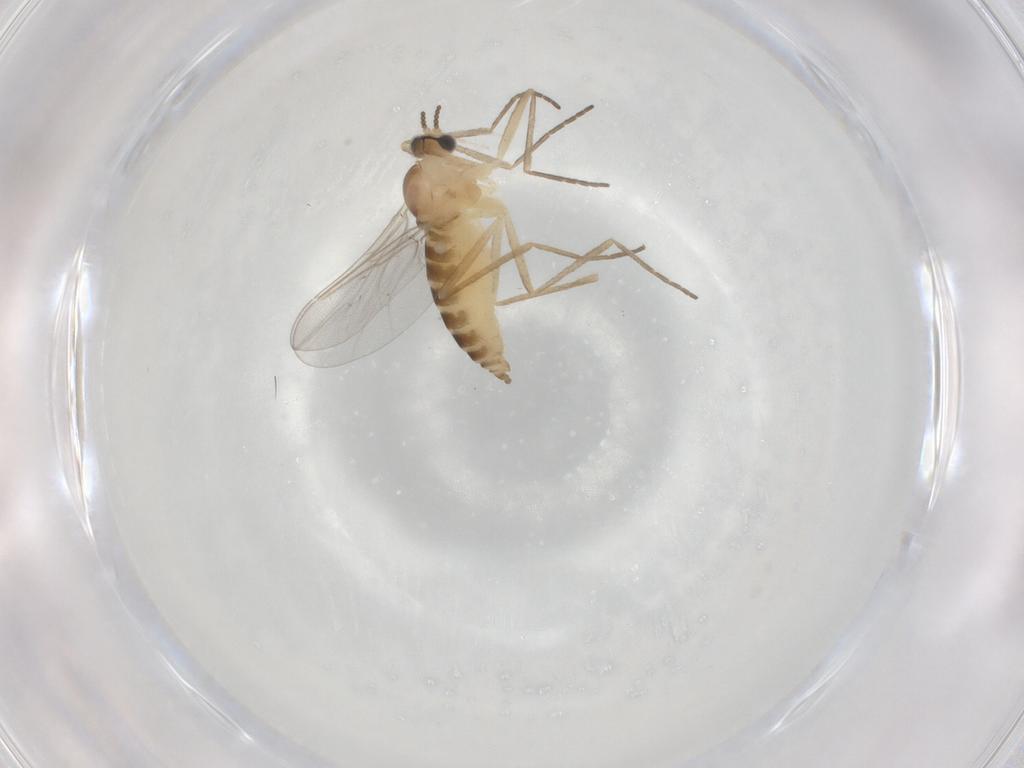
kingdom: Animalia
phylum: Arthropoda
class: Insecta
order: Diptera
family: Cecidomyiidae
